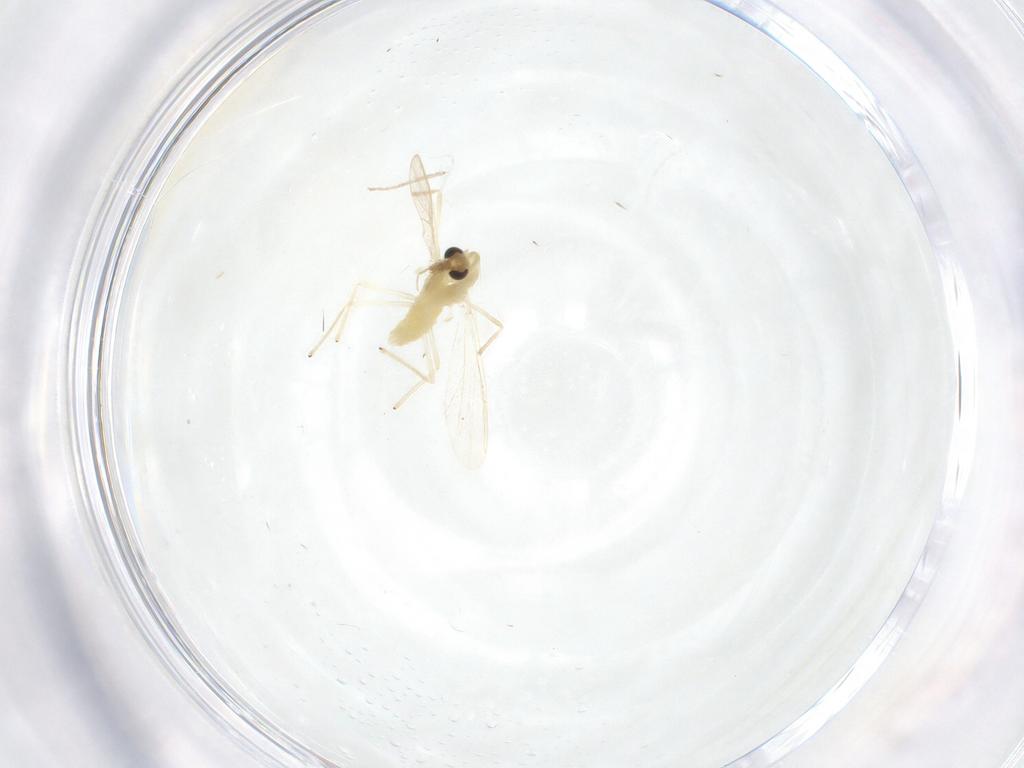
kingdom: Animalia
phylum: Arthropoda
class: Insecta
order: Diptera
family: Chironomidae
